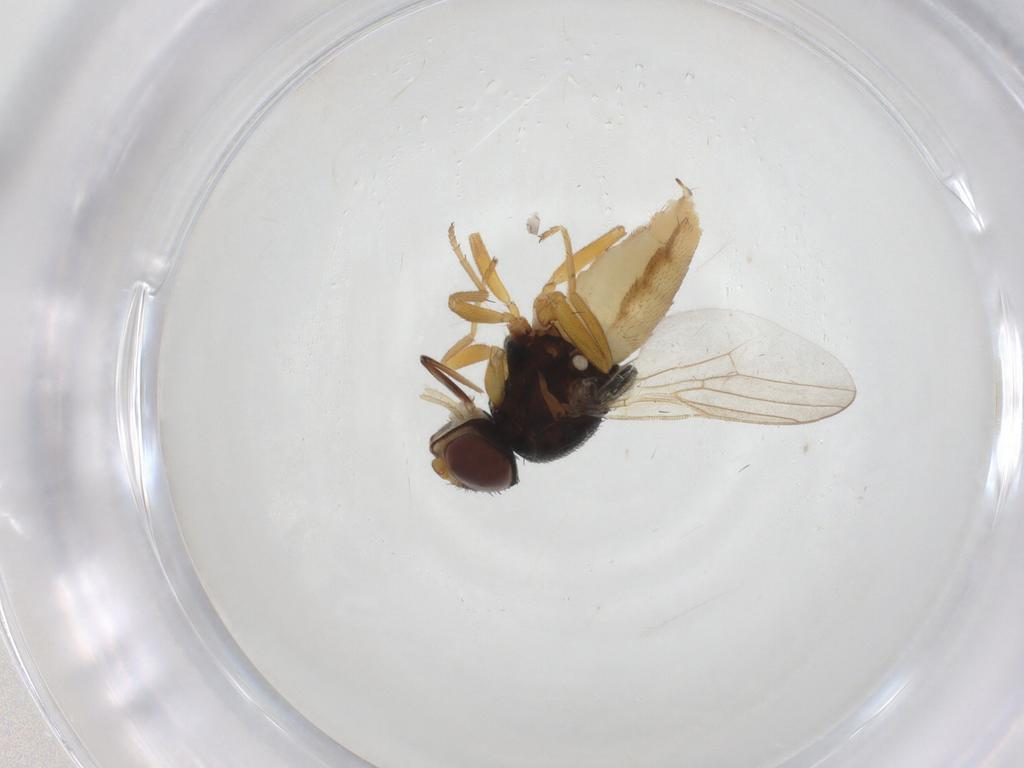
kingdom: Animalia
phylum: Arthropoda
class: Insecta
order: Diptera
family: Chloropidae
